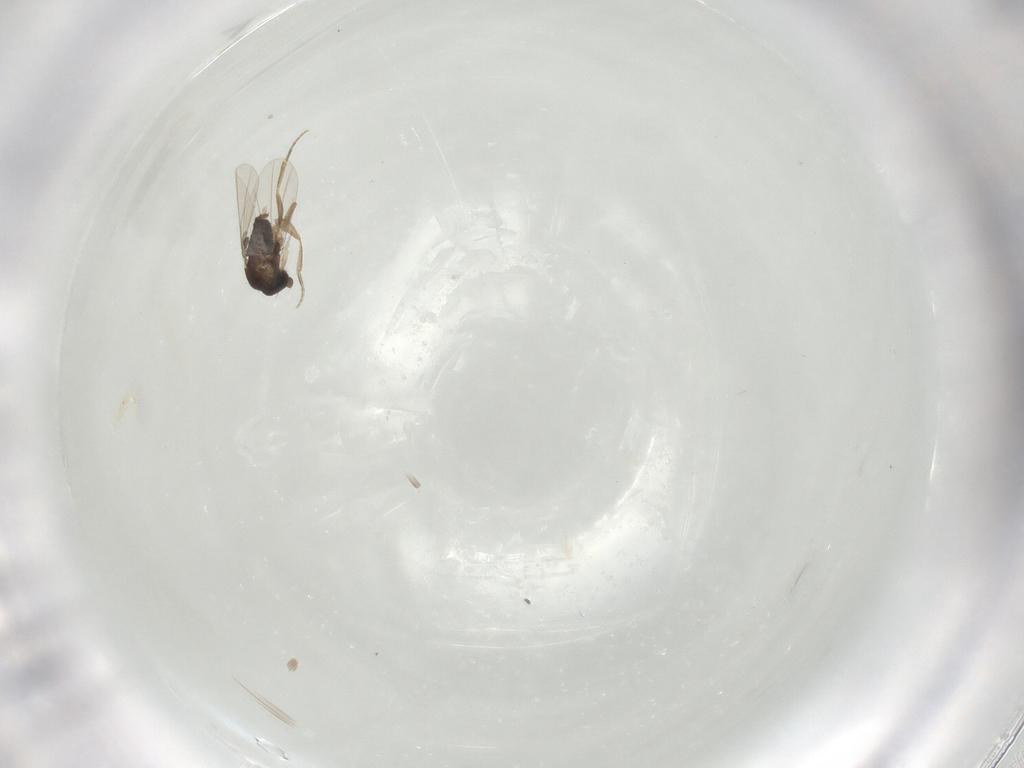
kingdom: Animalia
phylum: Arthropoda
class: Insecta
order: Diptera
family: Phoridae
